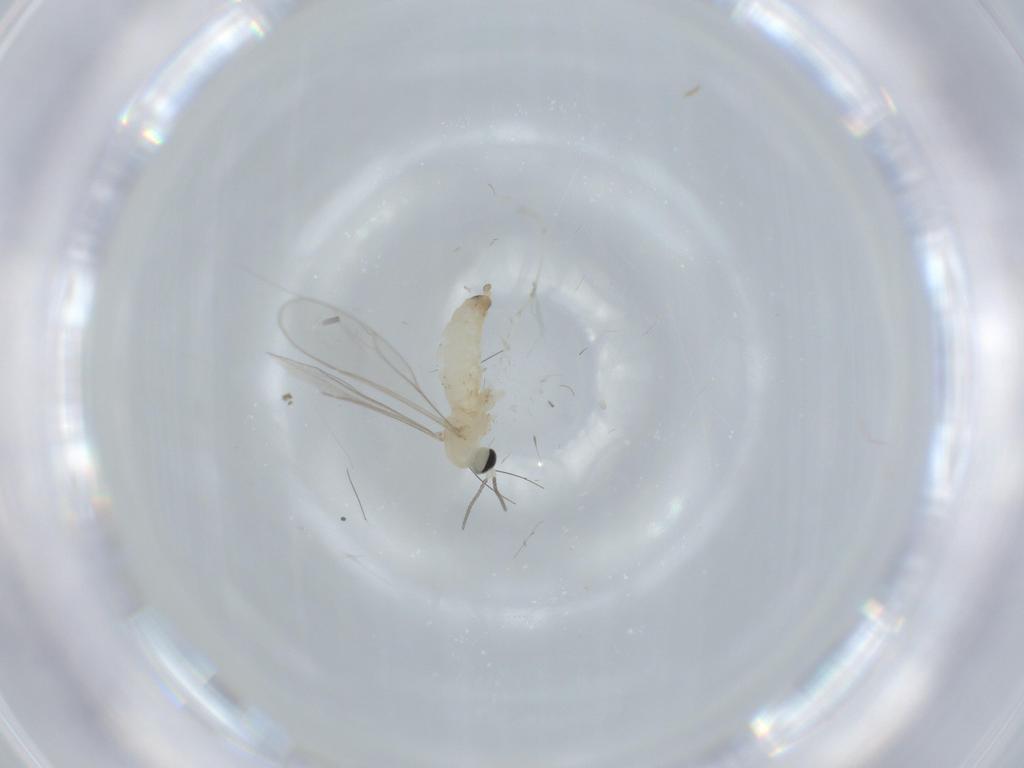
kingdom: Animalia
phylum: Arthropoda
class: Insecta
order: Diptera
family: Cecidomyiidae
